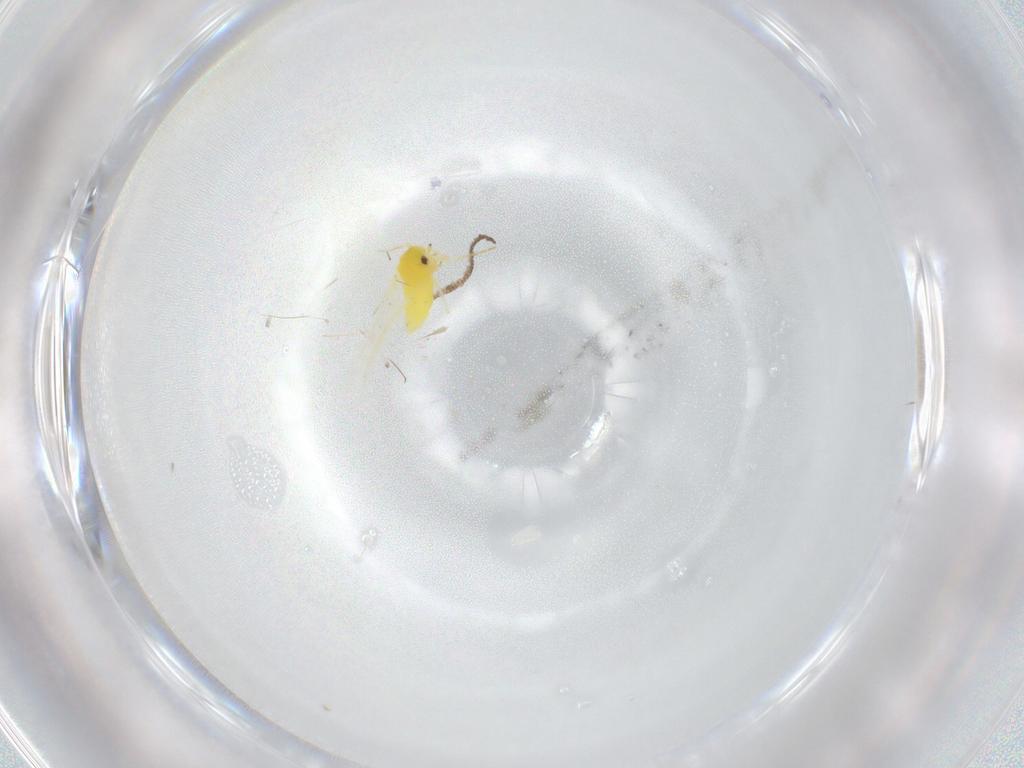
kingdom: Animalia
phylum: Arthropoda
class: Insecta
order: Hemiptera
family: Aleyrodidae
